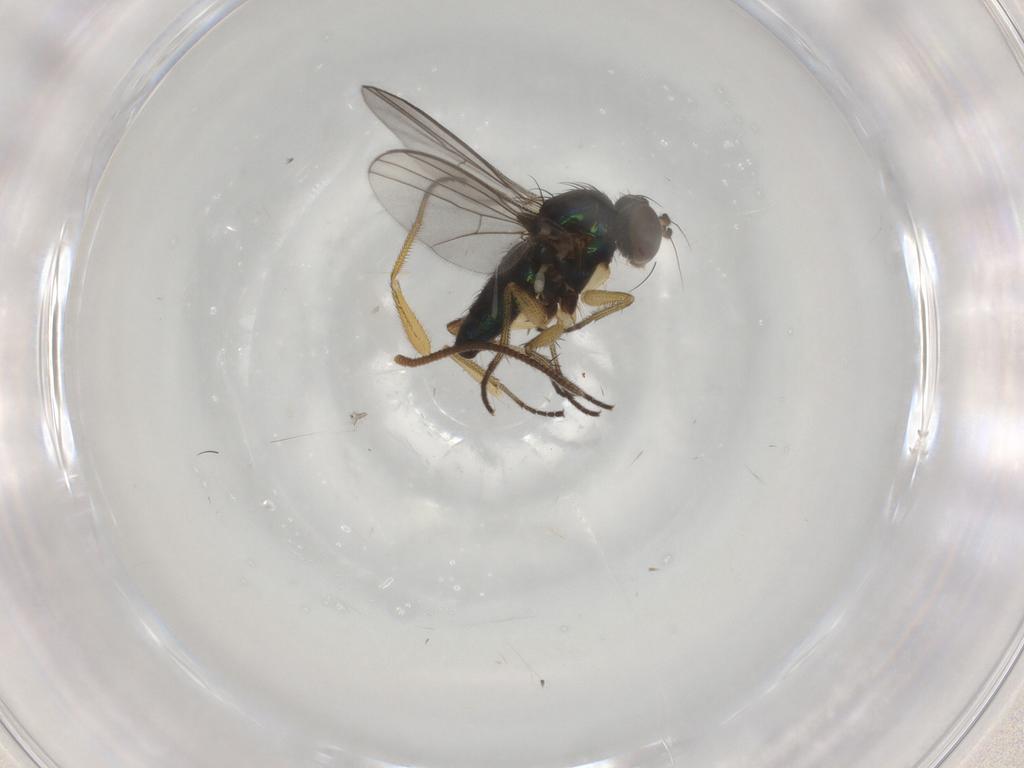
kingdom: Animalia
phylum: Arthropoda
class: Insecta
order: Diptera
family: Dolichopodidae
